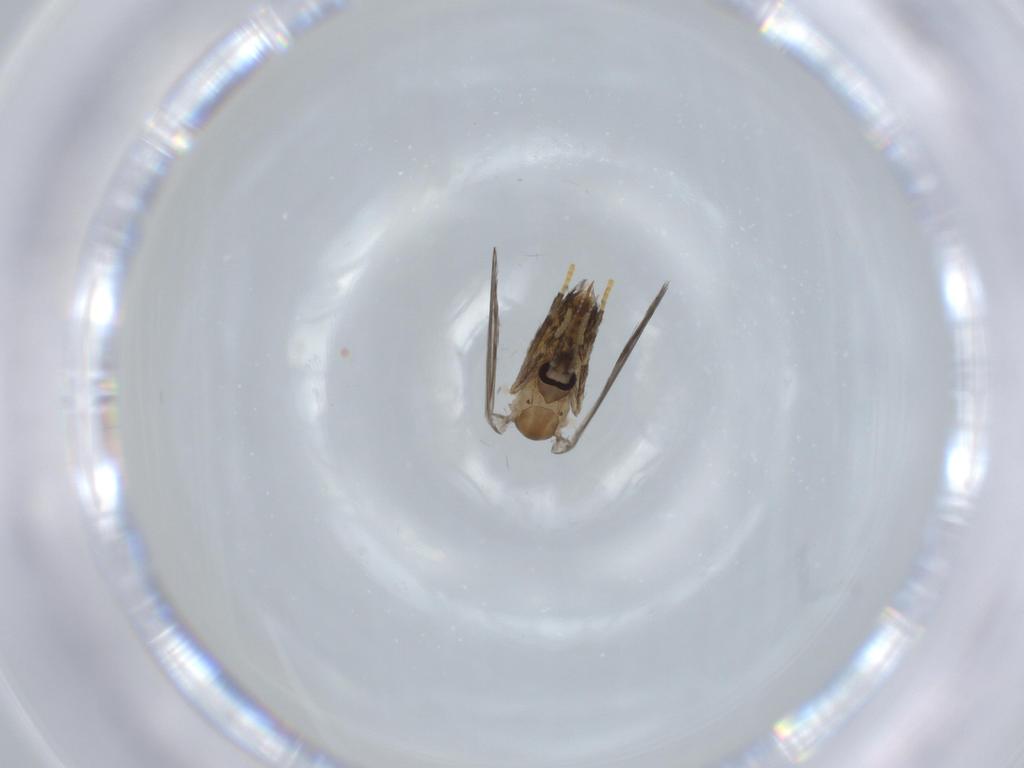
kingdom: Animalia
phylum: Arthropoda
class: Insecta
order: Diptera
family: Psychodidae
